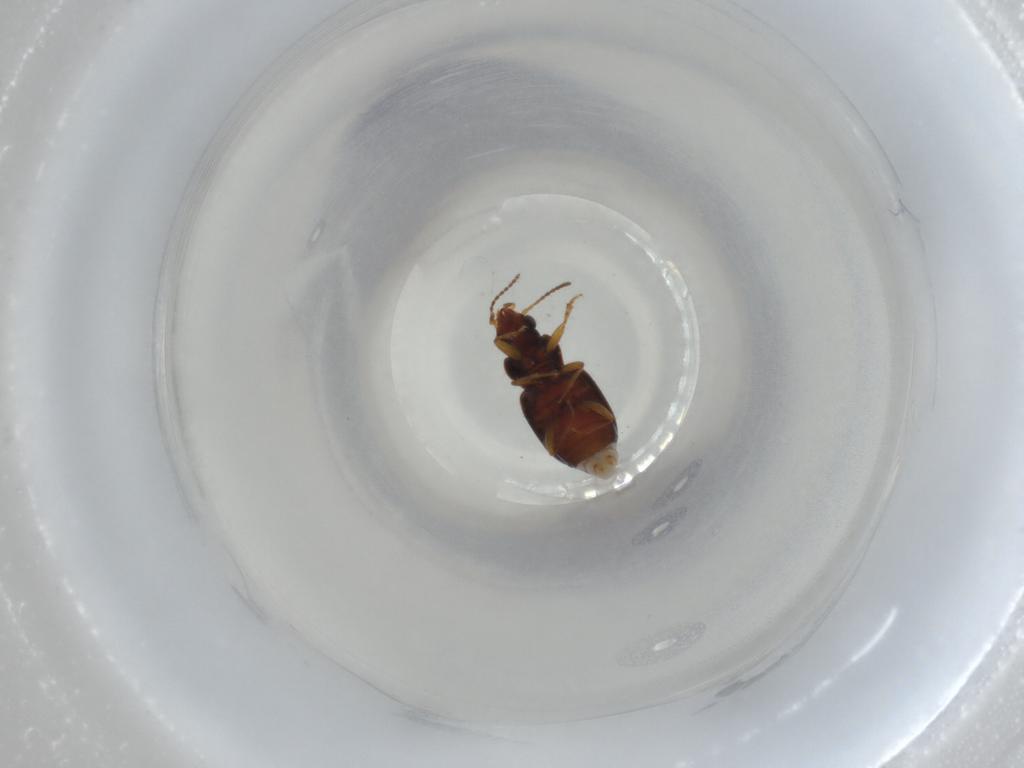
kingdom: Animalia
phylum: Arthropoda
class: Insecta
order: Coleoptera
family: Carabidae
